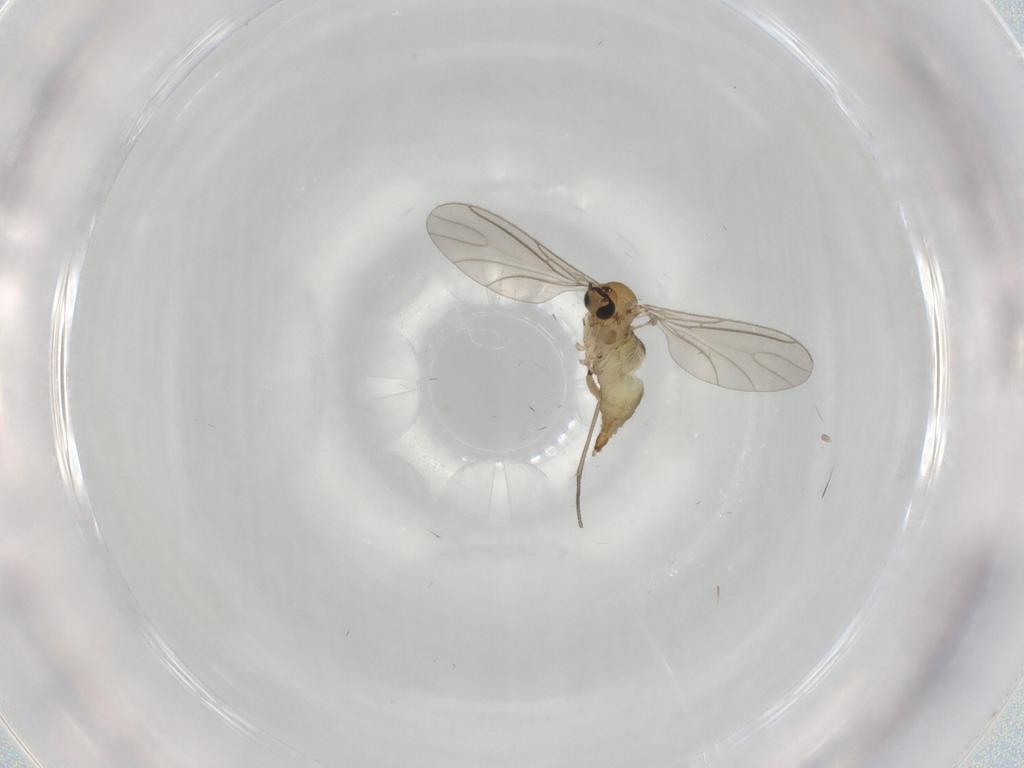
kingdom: Animalia
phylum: Arthropoda
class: Insecta
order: Diptera
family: Sciaridae
